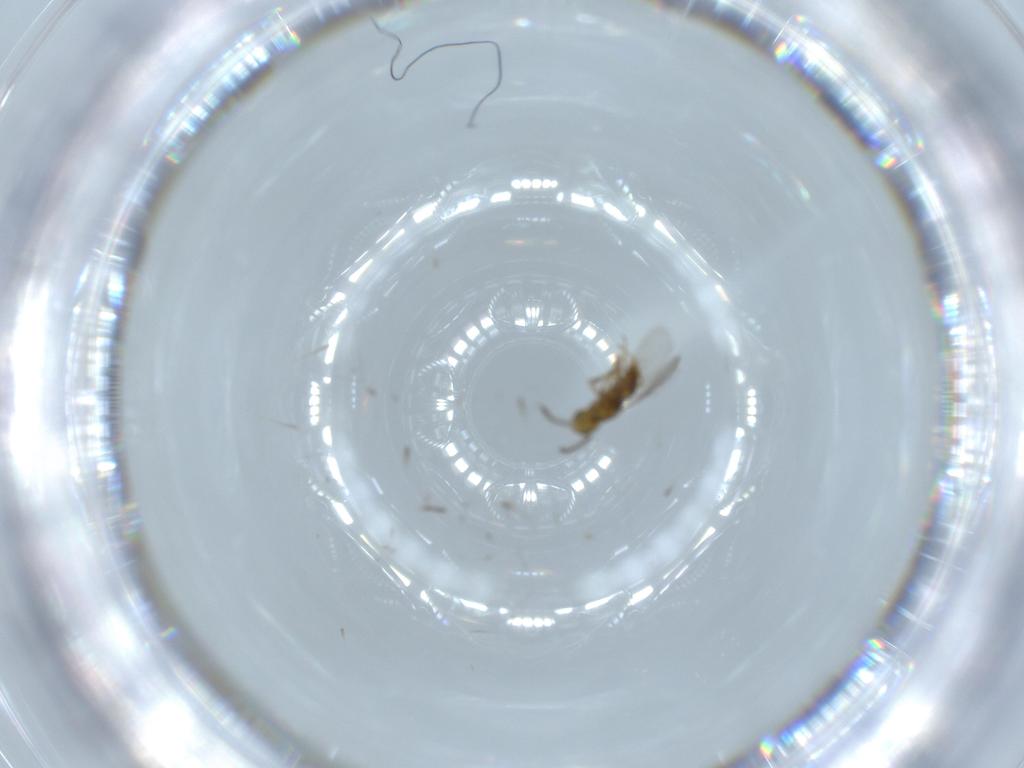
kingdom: Animalia
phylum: Arthropoda
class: Insecta
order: Hymenoptera
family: Encyrtidae
